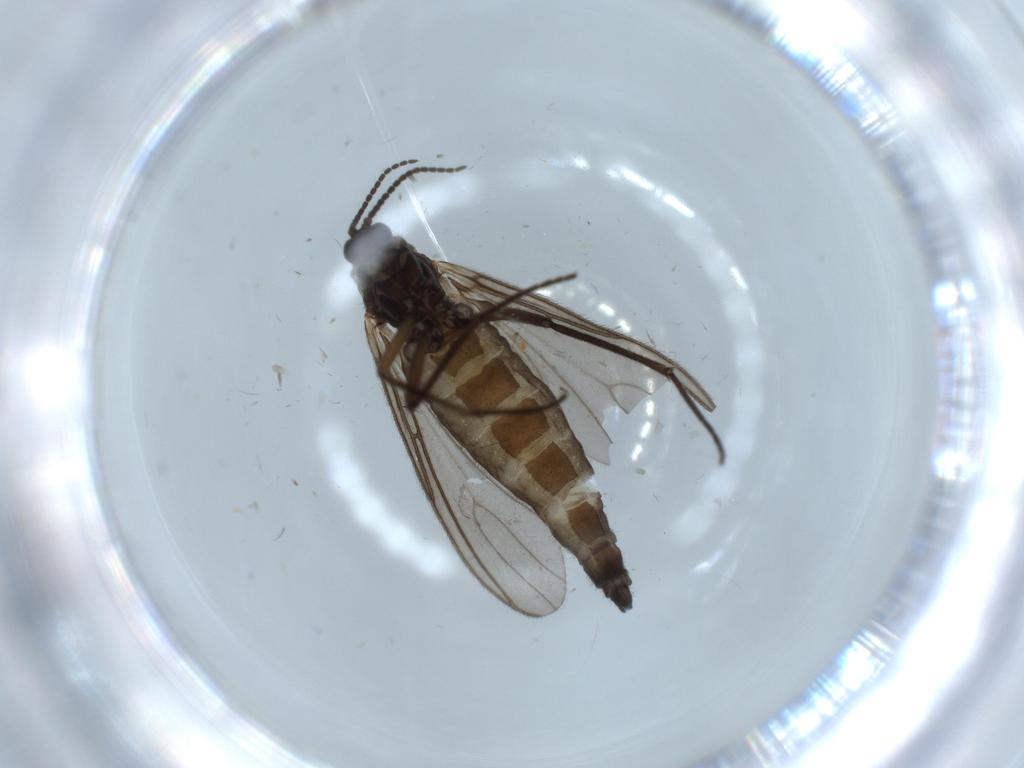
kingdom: Animalia
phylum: Arthropoda
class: Insecta
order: Diptera
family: Sciaridae
